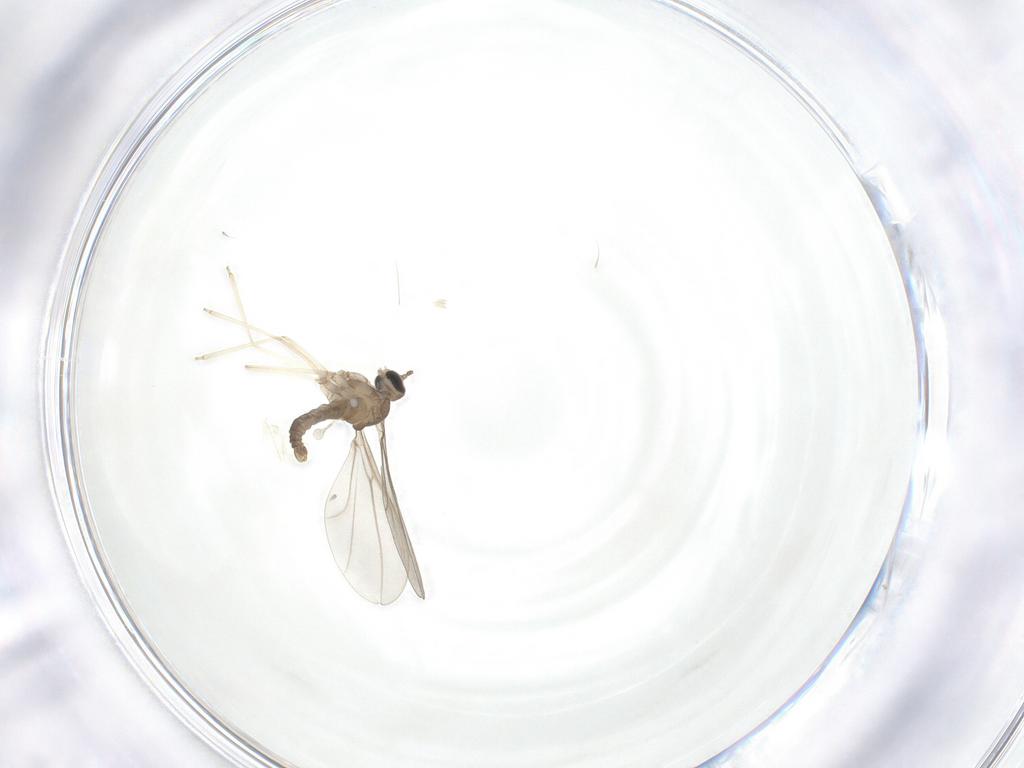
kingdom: Animalia
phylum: Arthropoda
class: Insecta
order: Diptera
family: Cecidomyiidae
